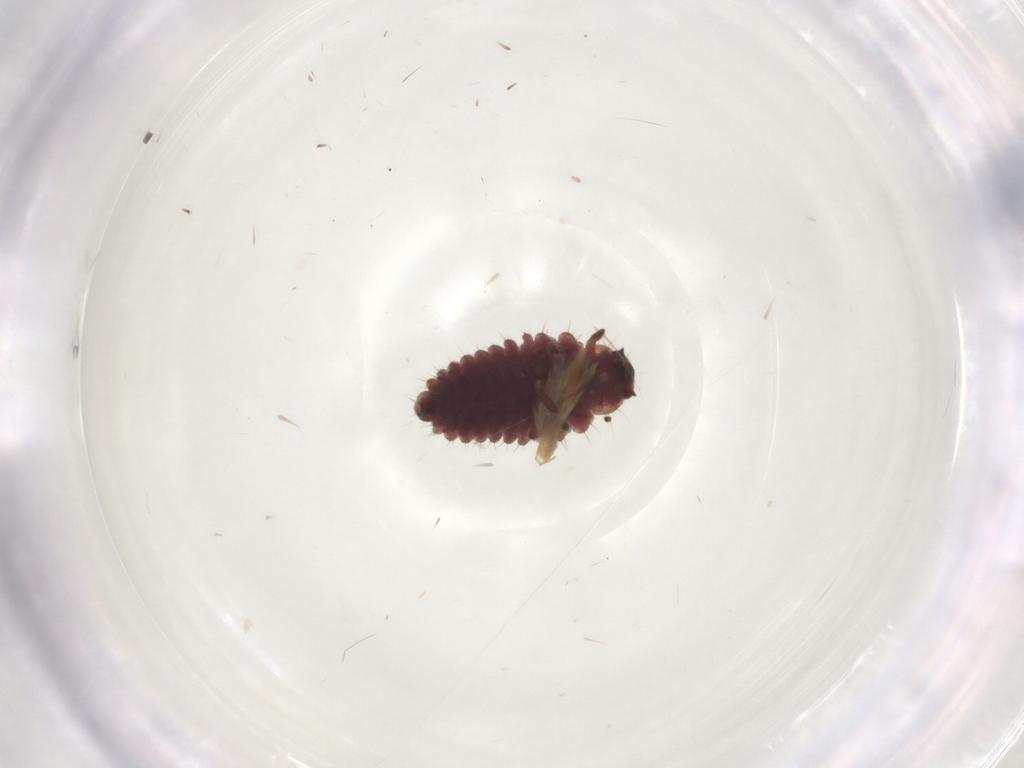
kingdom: Animalia
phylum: Arthropoda
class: Insecta
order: Coleoptera
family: Coccinellidae
